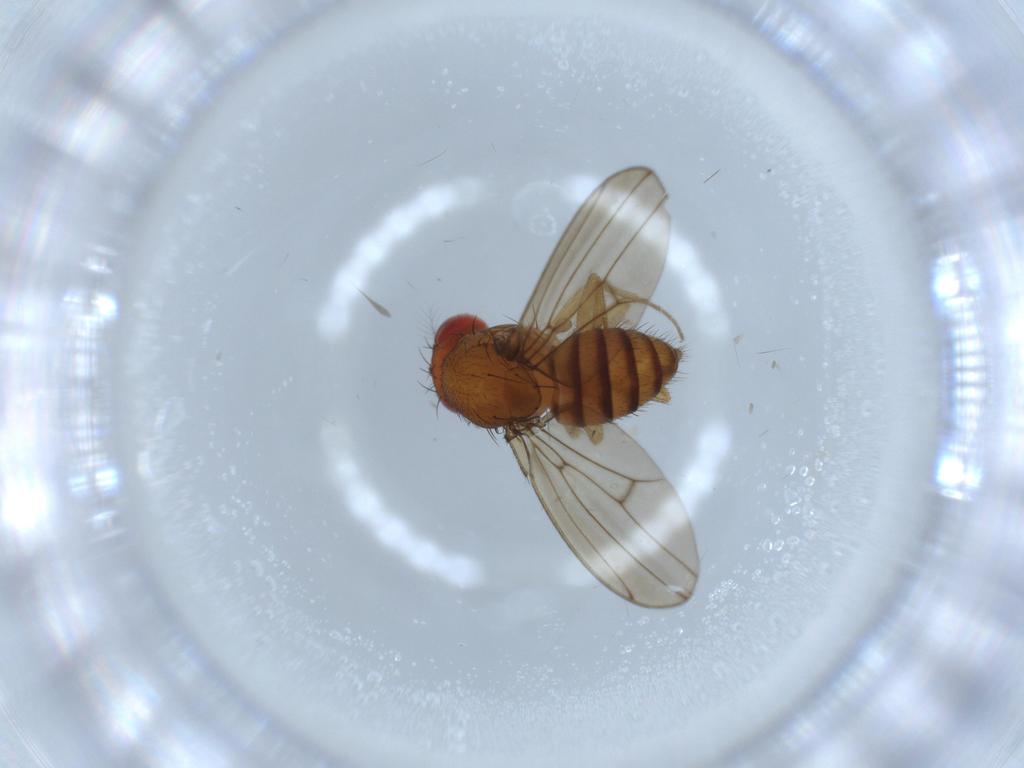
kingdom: Animalia
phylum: Arthropoda
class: Insecta
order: Diptera
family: Drosophilidae
